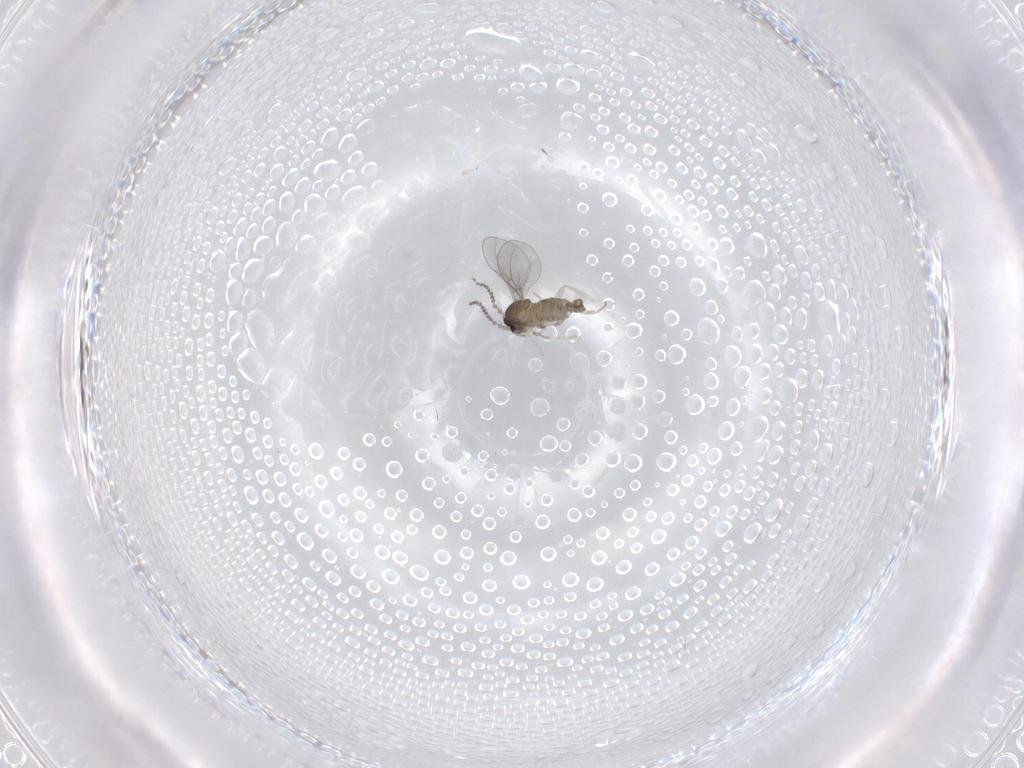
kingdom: Animalia
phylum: Arthropoda
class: Insecta
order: Diptera
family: Cecidomyiidae
